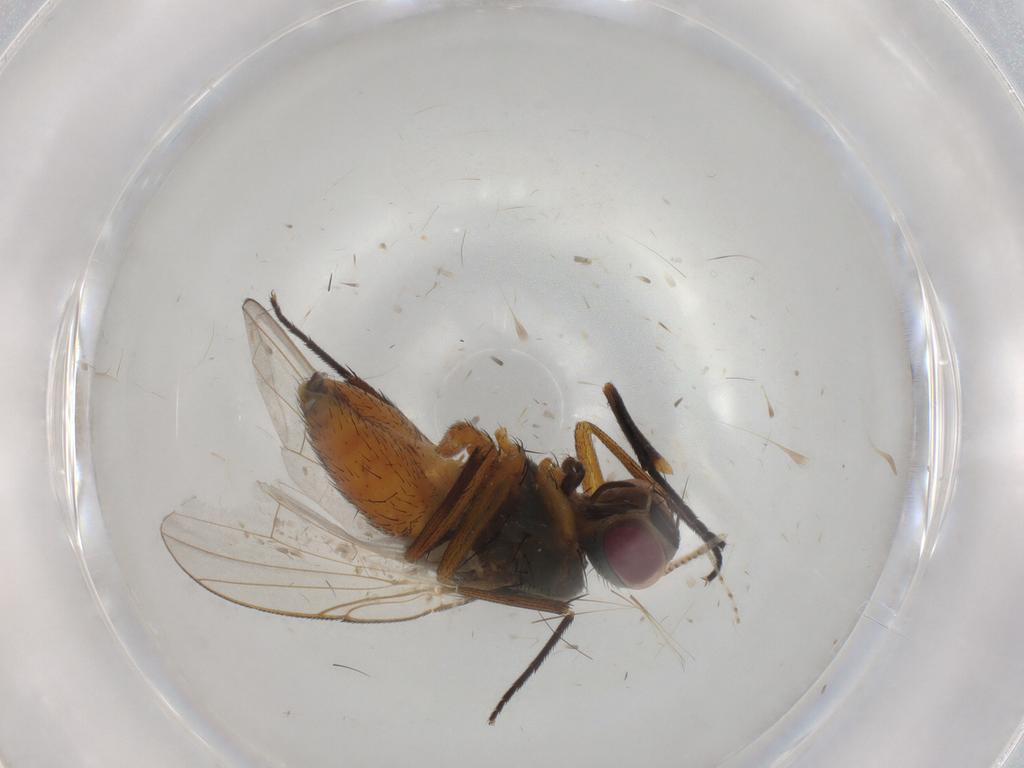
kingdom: Animalia
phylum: Arthropoda
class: Insecta
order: Diptera
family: Muscidae
